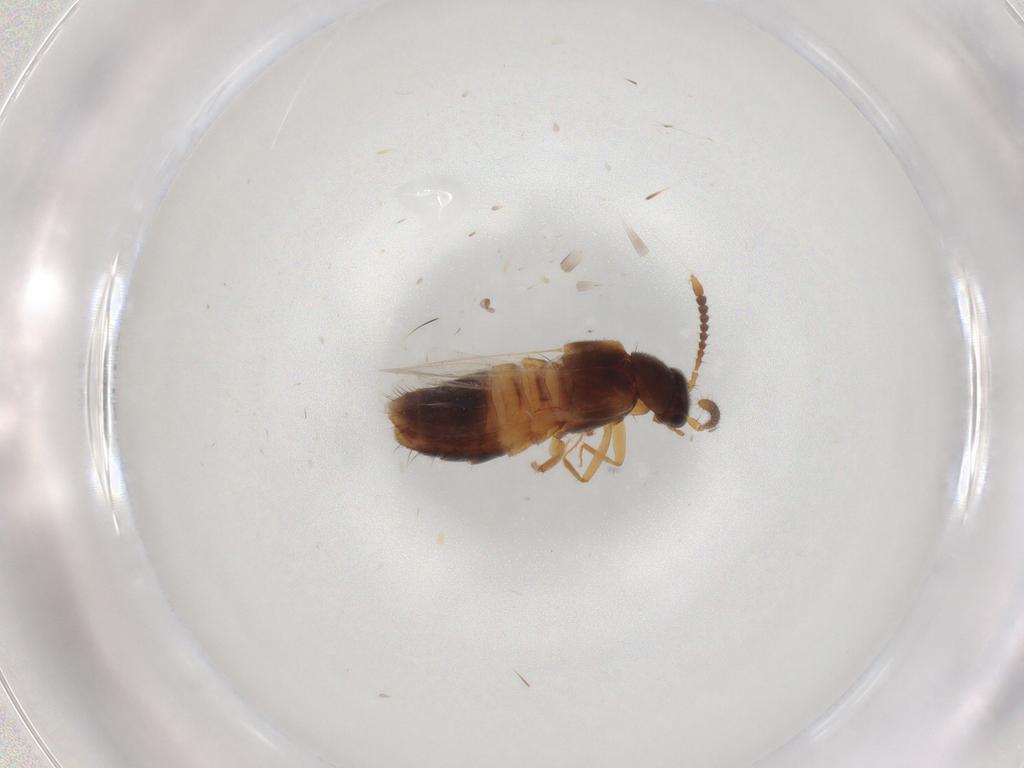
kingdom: Animalia
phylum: Arthropoda
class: Insecta
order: Coleoptera
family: Staphylinidae
